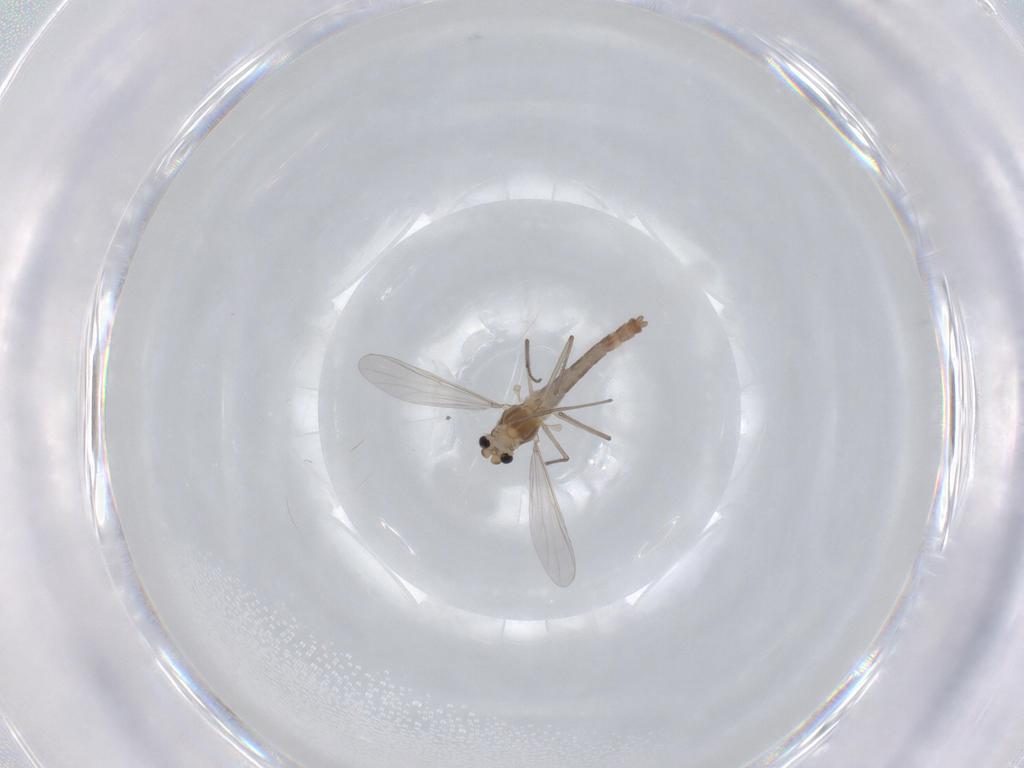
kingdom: Animalia
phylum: Arthropoda
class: Insecta
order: Diptera
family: Chironomidae
